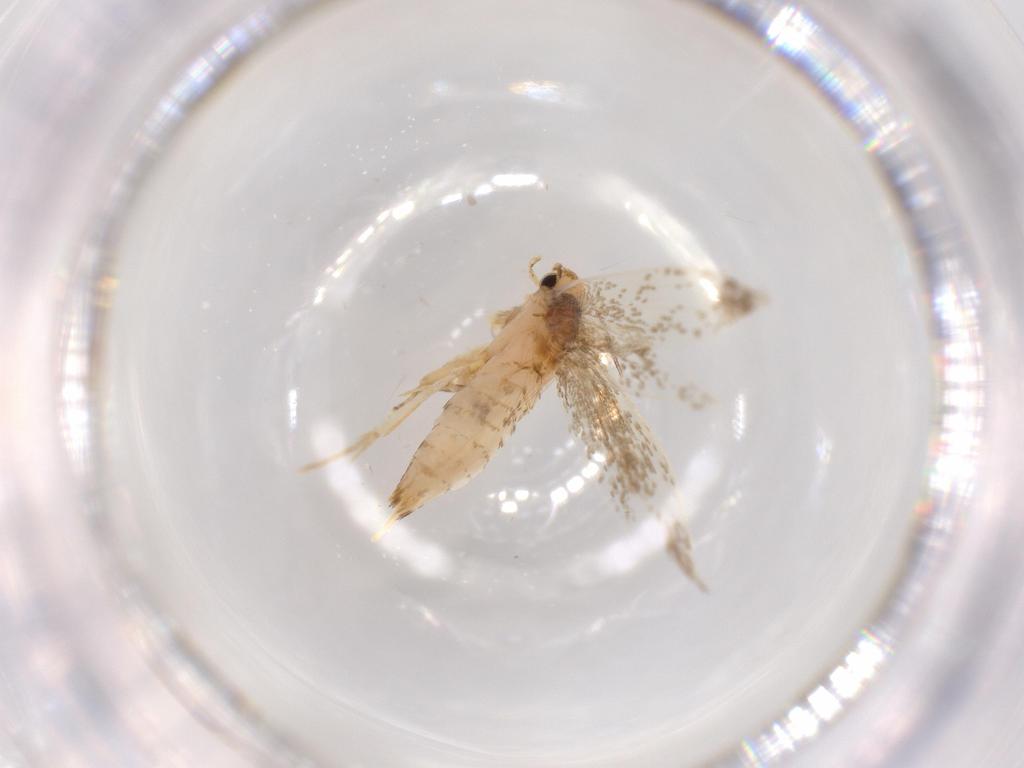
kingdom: Animalia
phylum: Arthropoda
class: Insecta
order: Lepidoptera
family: Tineidae
